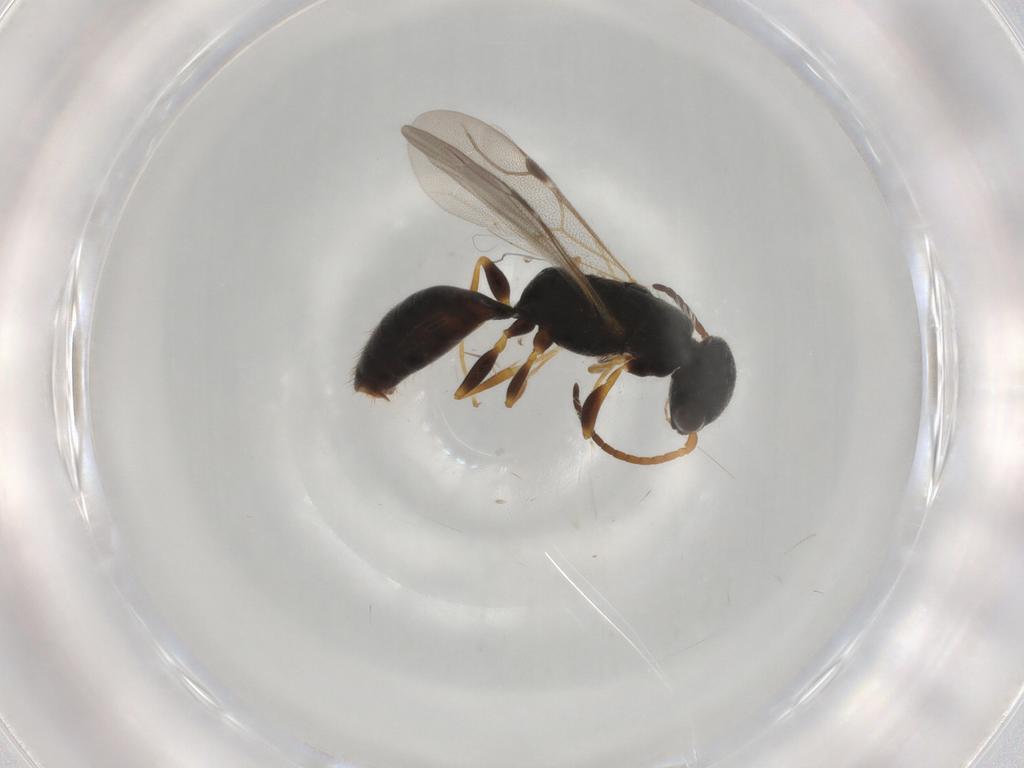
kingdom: Animalia
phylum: Arthropoda
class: Insecta
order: Hymenoptera
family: Bethylidae
